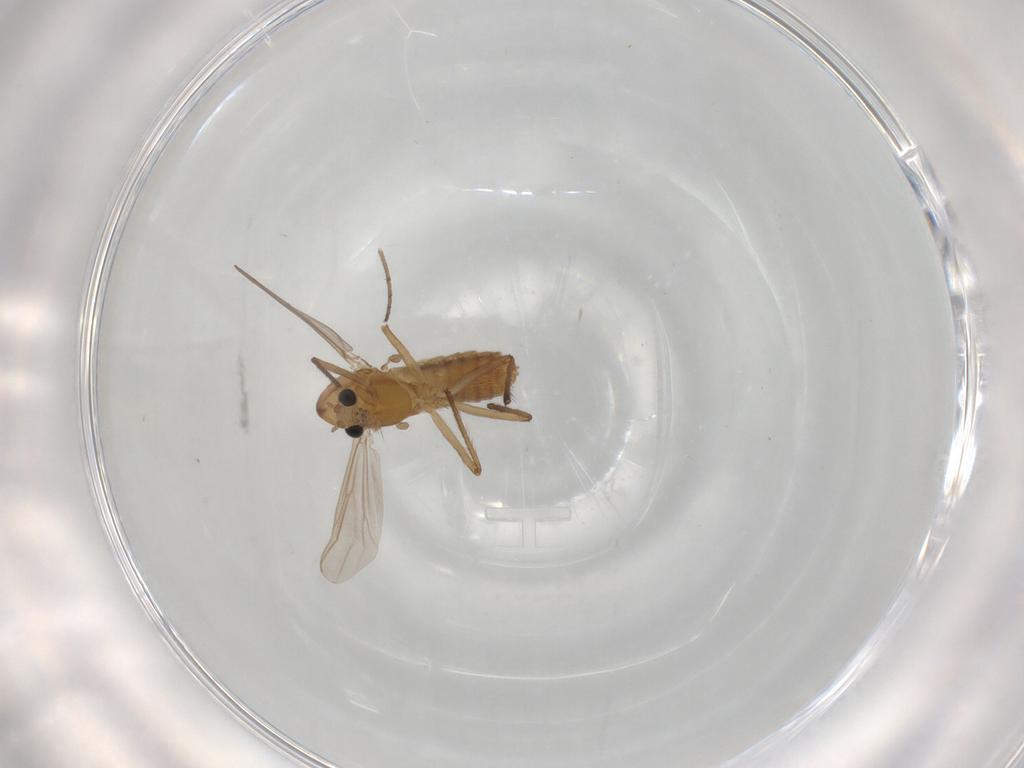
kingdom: Animalia
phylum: Arthropoda
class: Insecta
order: Diptera
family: Chironomidae
